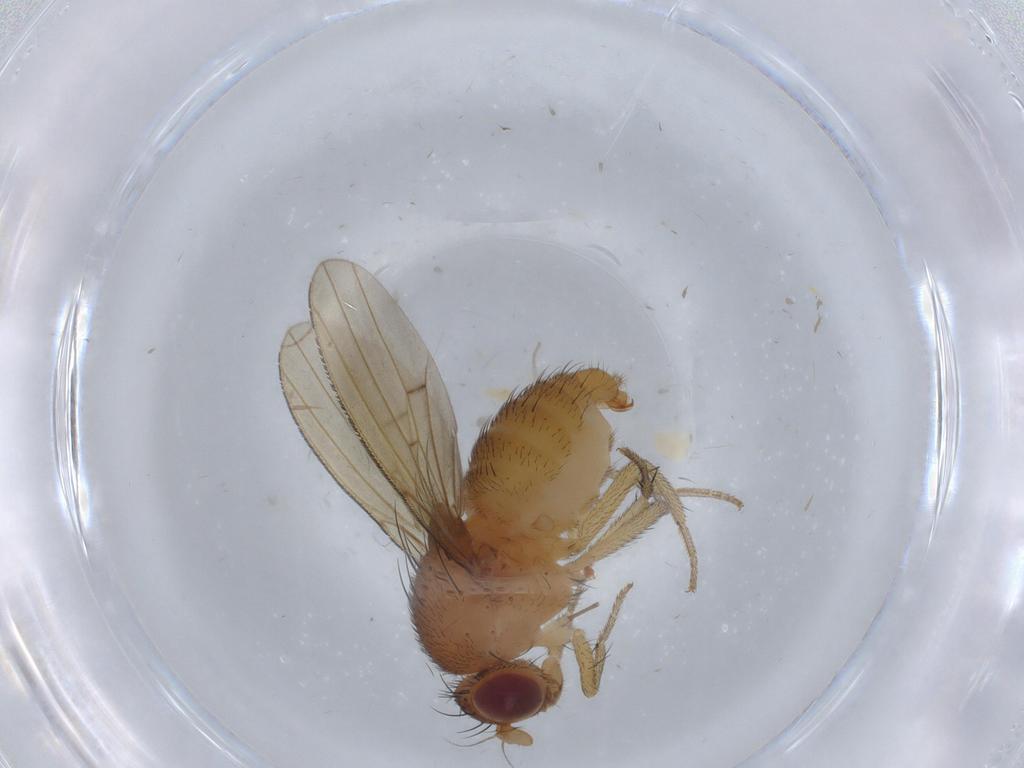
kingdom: Animalia
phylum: Arthropoda
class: Insecta
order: Diptera
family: Psychodidae
